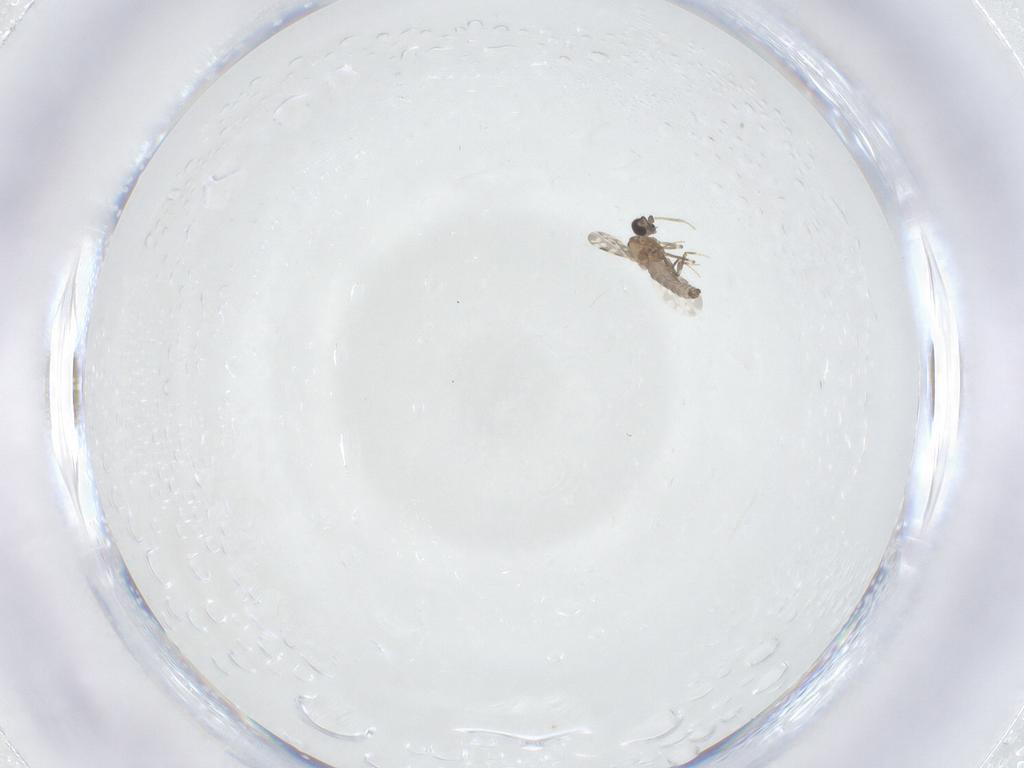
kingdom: Animalia
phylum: Arthropoda
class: Insecta
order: Diptera
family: Ceratopogonidae
